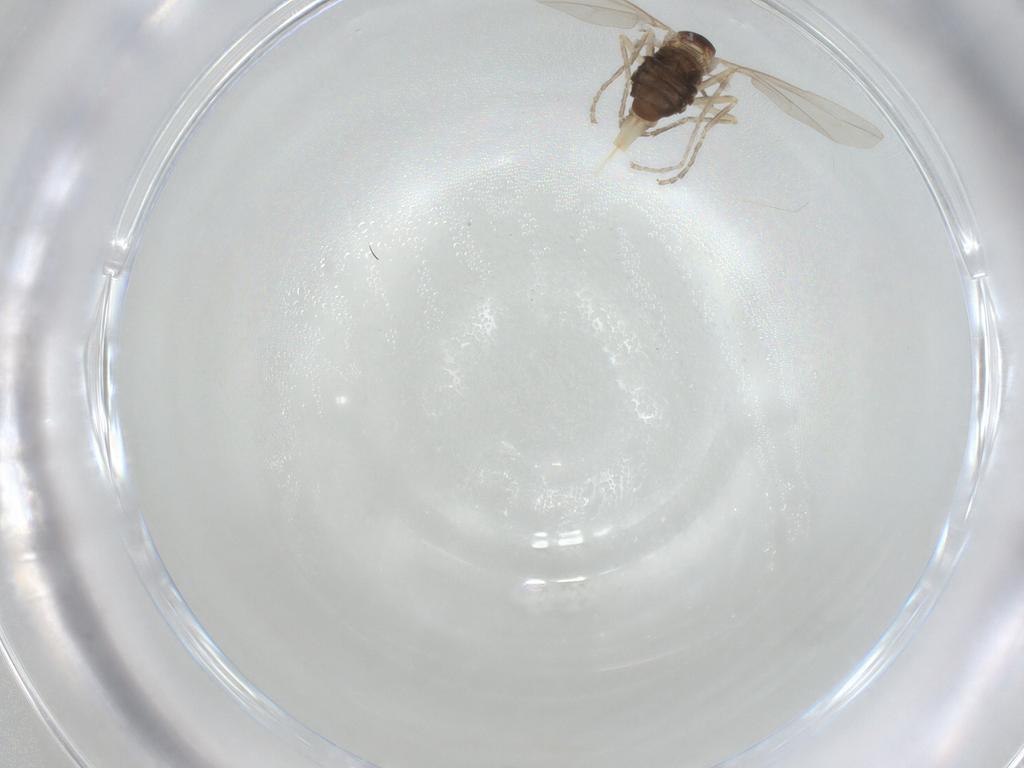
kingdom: Animalia
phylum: Arthropoda
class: Insecta
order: Diptera
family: Cecidomyiidae
